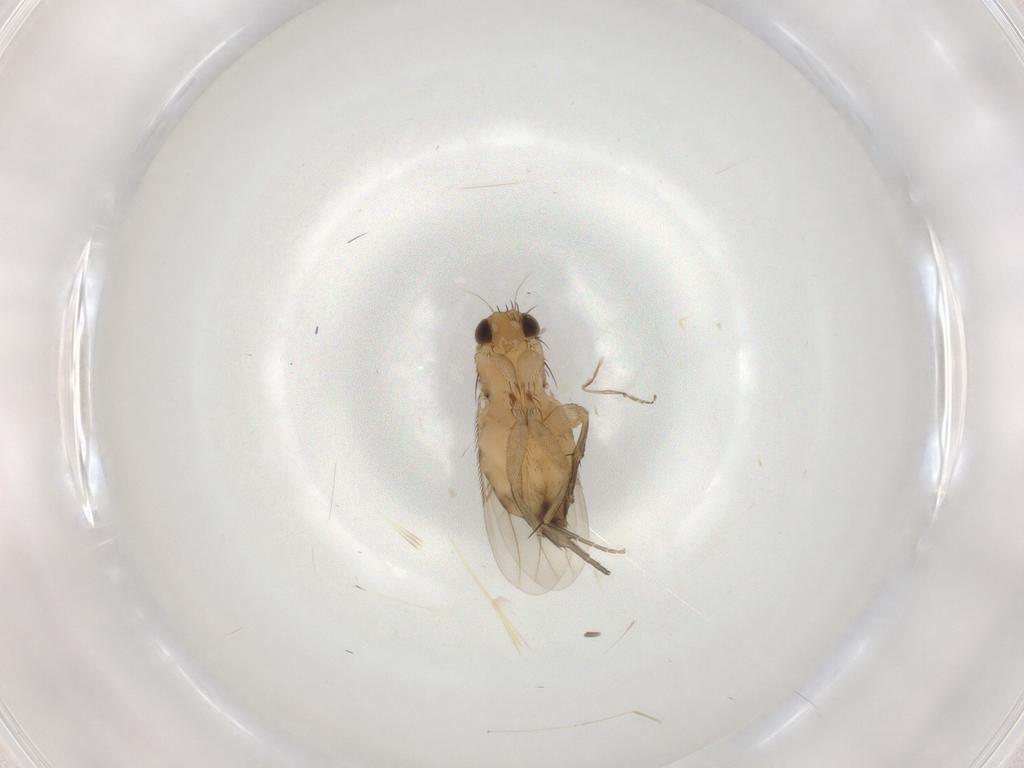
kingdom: Animalia
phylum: Arthropoda
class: Insecta
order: Diptera
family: Psychodidae
